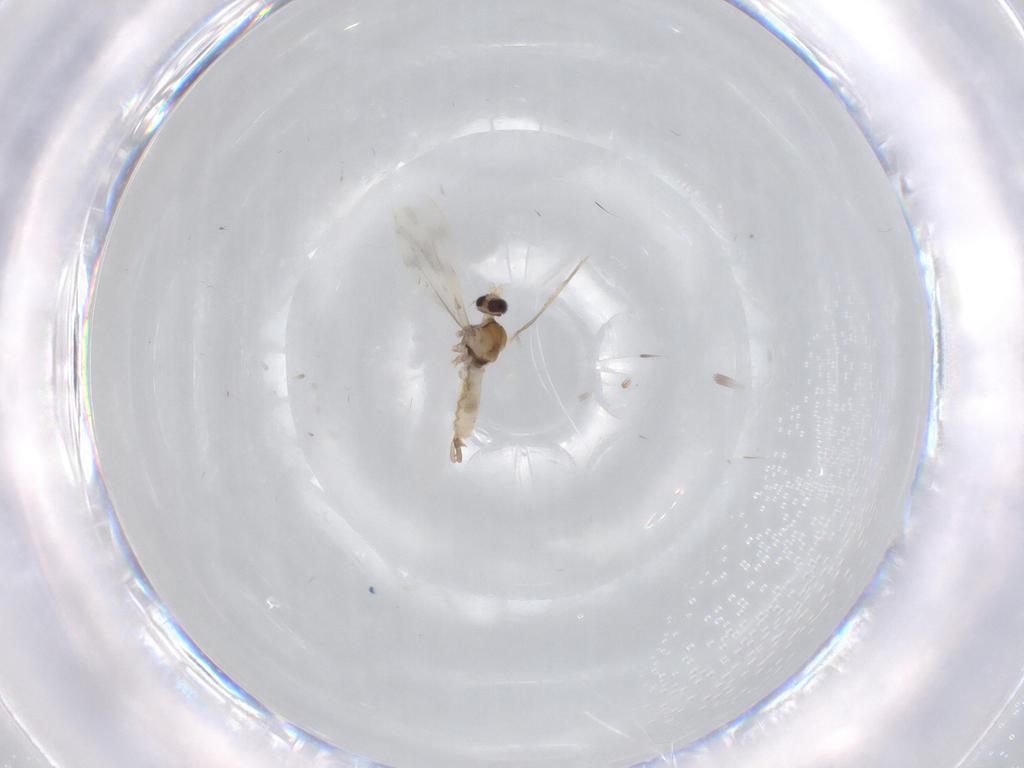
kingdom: Animalia
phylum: Arthropoda
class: Insecta
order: Diptera
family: Cecidomyiidae
